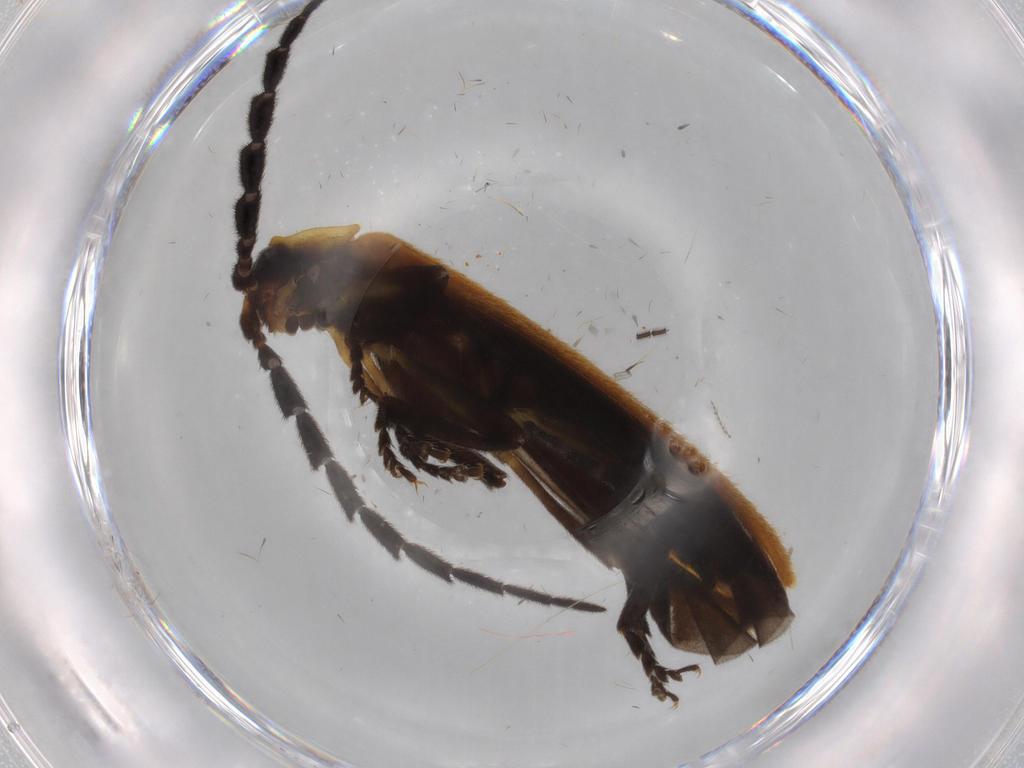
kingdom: Animalia
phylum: Arthropoda
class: Insecta
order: Coleoptera
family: Lycidae
